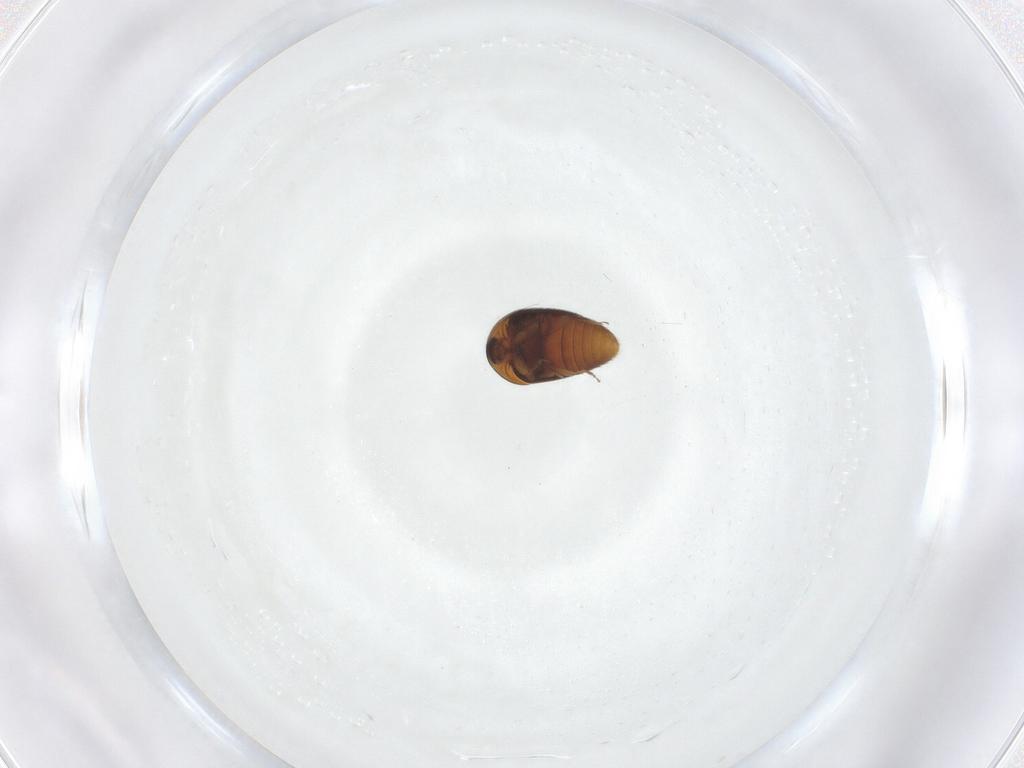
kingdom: Animalia
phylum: Arthropoda
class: Insecta
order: Coleoptera
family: Corylophidae
